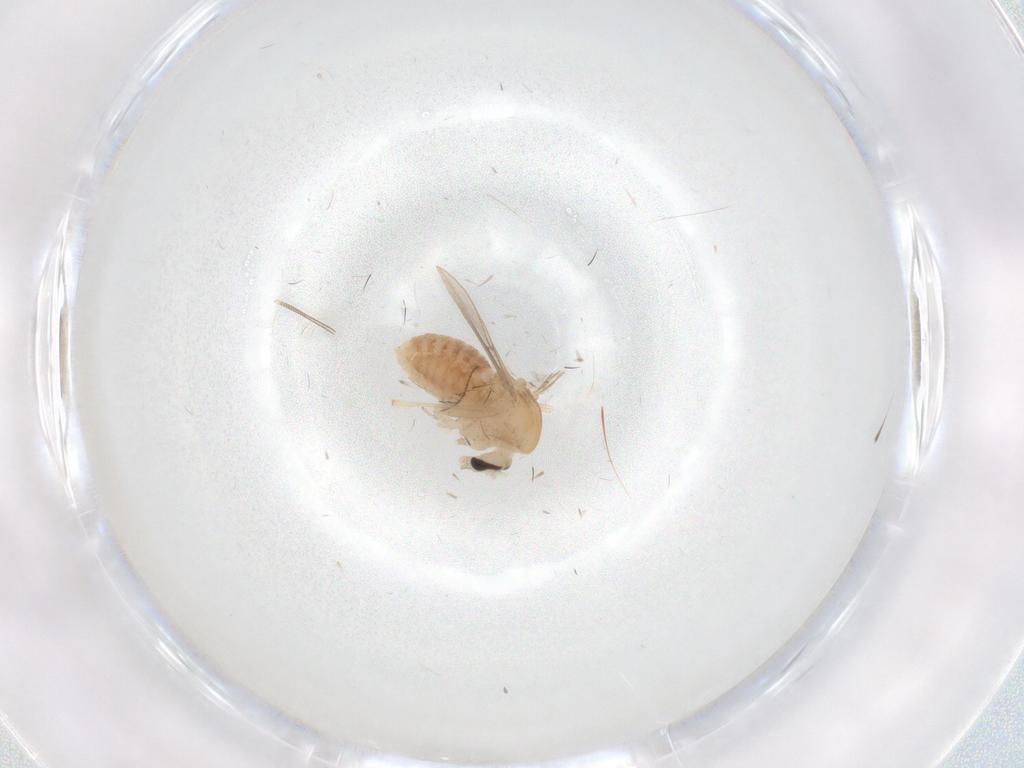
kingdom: Animalia
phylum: Arthropoda
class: Insecta
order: Diptera
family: Chironomidae
